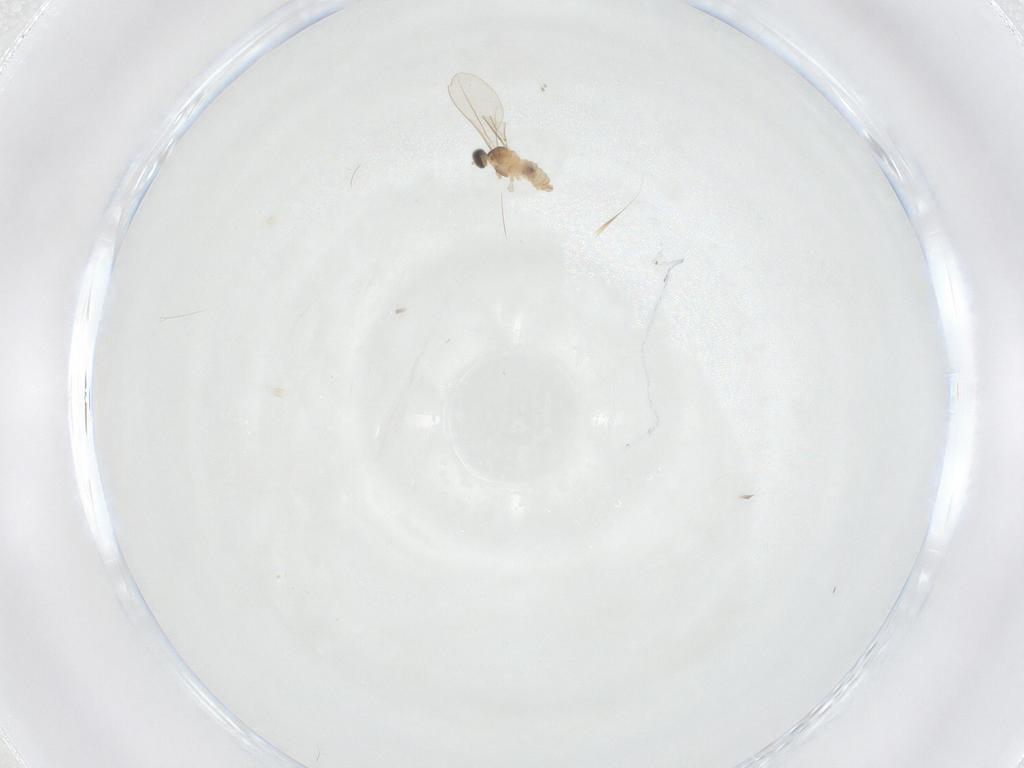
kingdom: Animalia
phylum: Arthropoda
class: Insecta
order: Diptera
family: Cecidomyiidae
